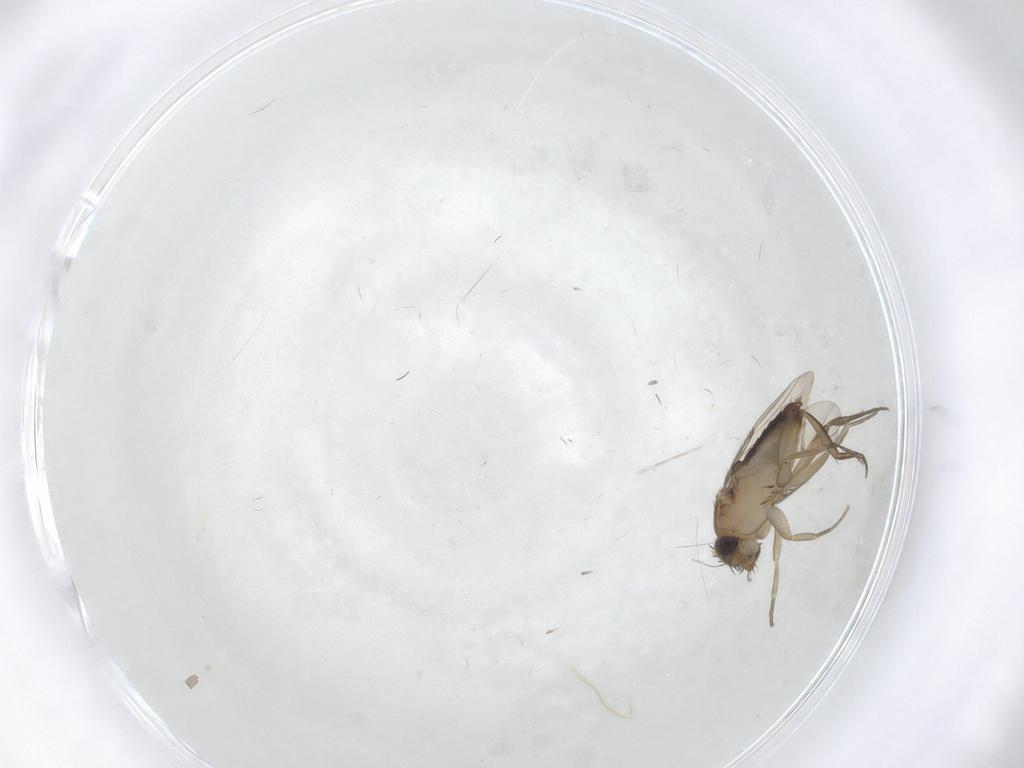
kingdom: Animalia
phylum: Arthropoda
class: Insecta
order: Diptera
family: Phoridae
